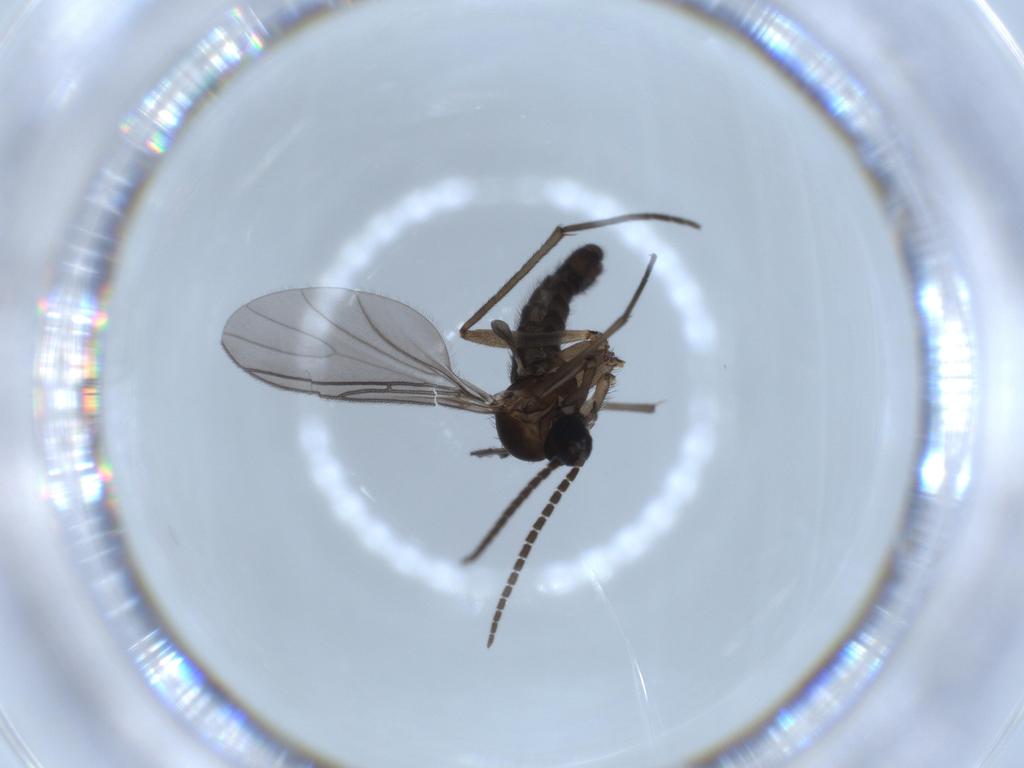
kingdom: Animalia
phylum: Arthropoda
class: Insecta
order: Diptera
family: Sciaridae
